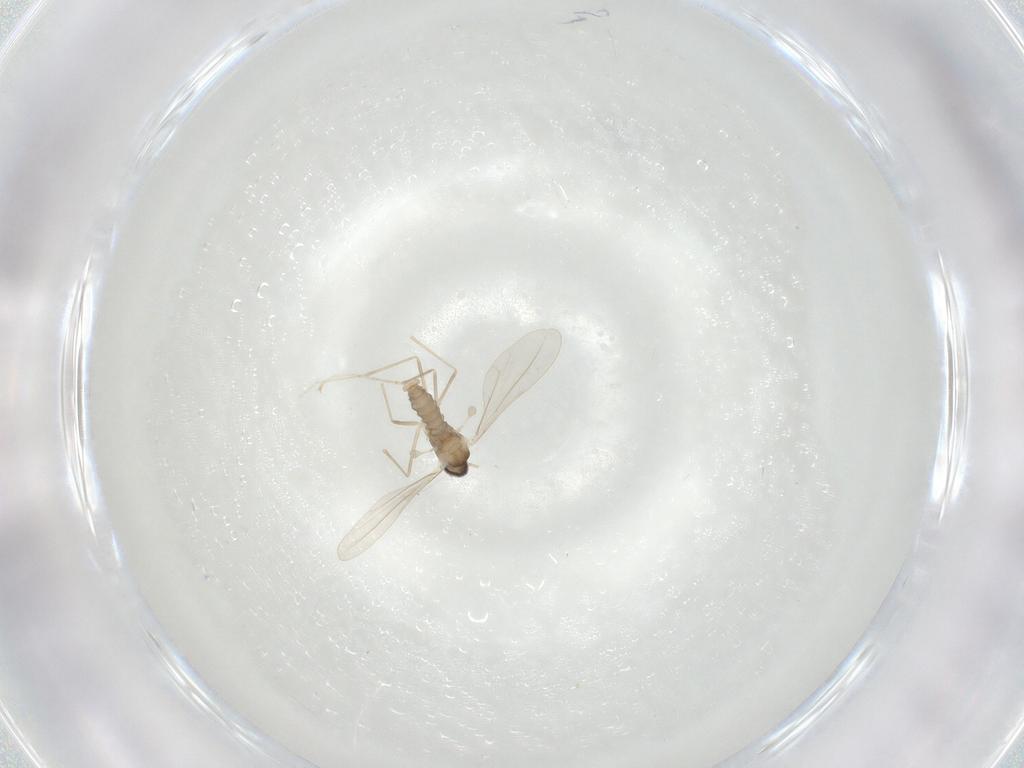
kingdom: Animalia
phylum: Arthropoda
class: Insecta
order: Diptera
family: Cecidomyiidae
